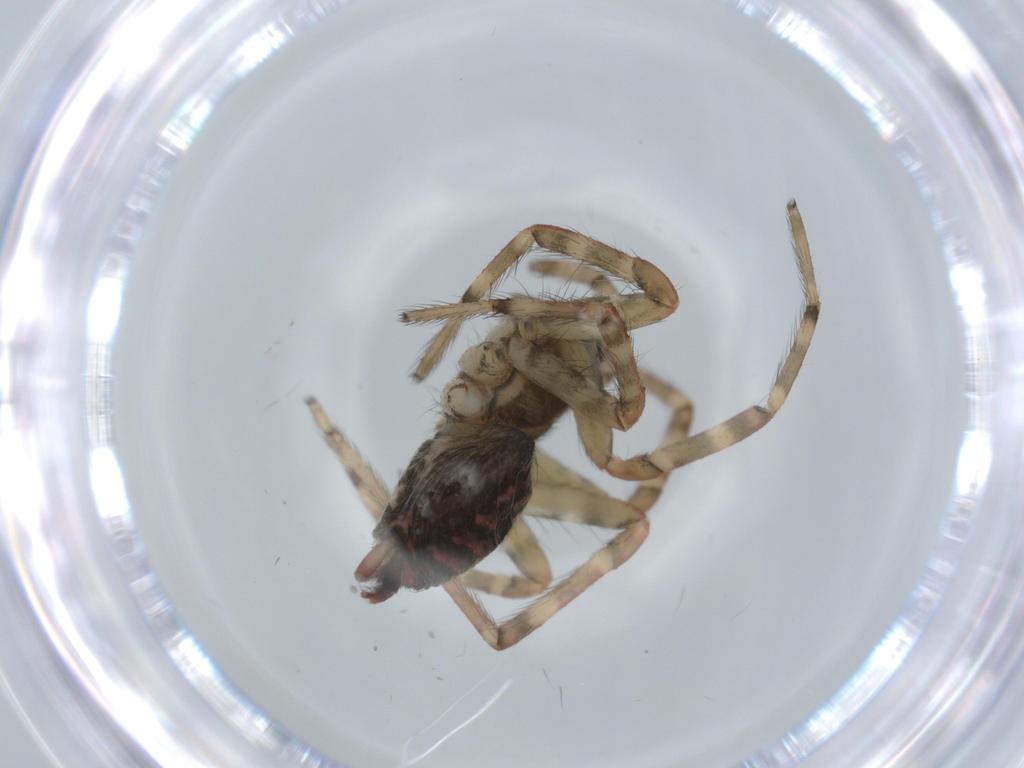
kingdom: Animalia
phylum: Arthropoda
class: Arachnida
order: Araneae
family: Agelenidae
